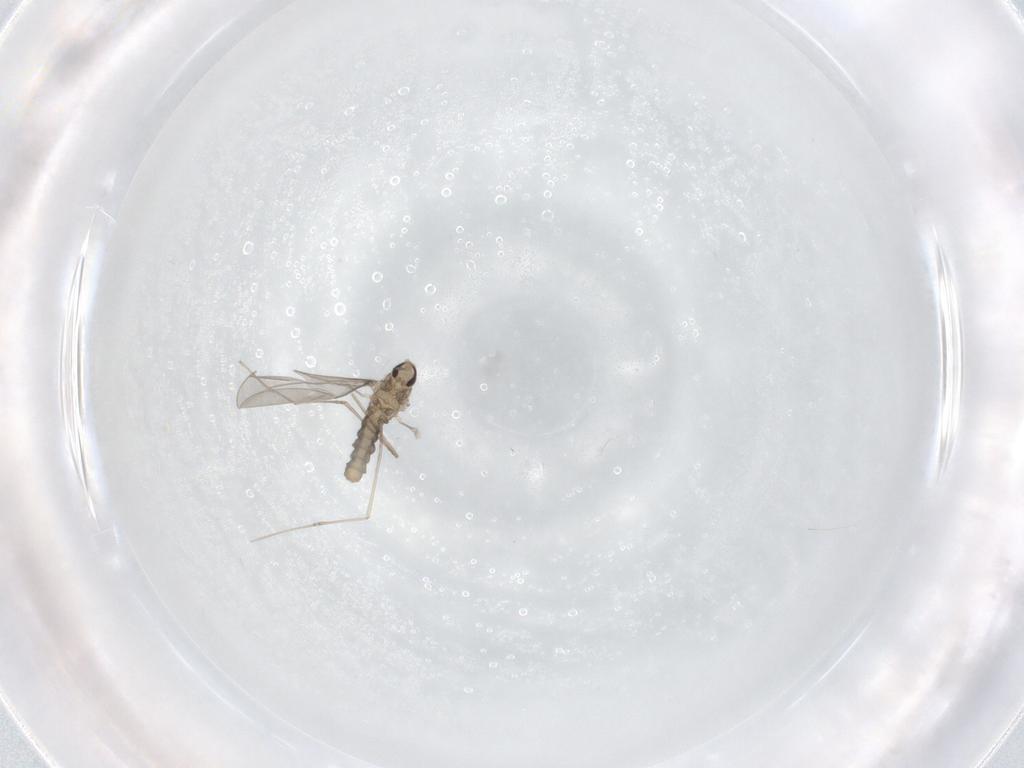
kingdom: Animalia
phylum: Arthropoda
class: Insecta
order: Diptera
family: Cecidomyiidae
